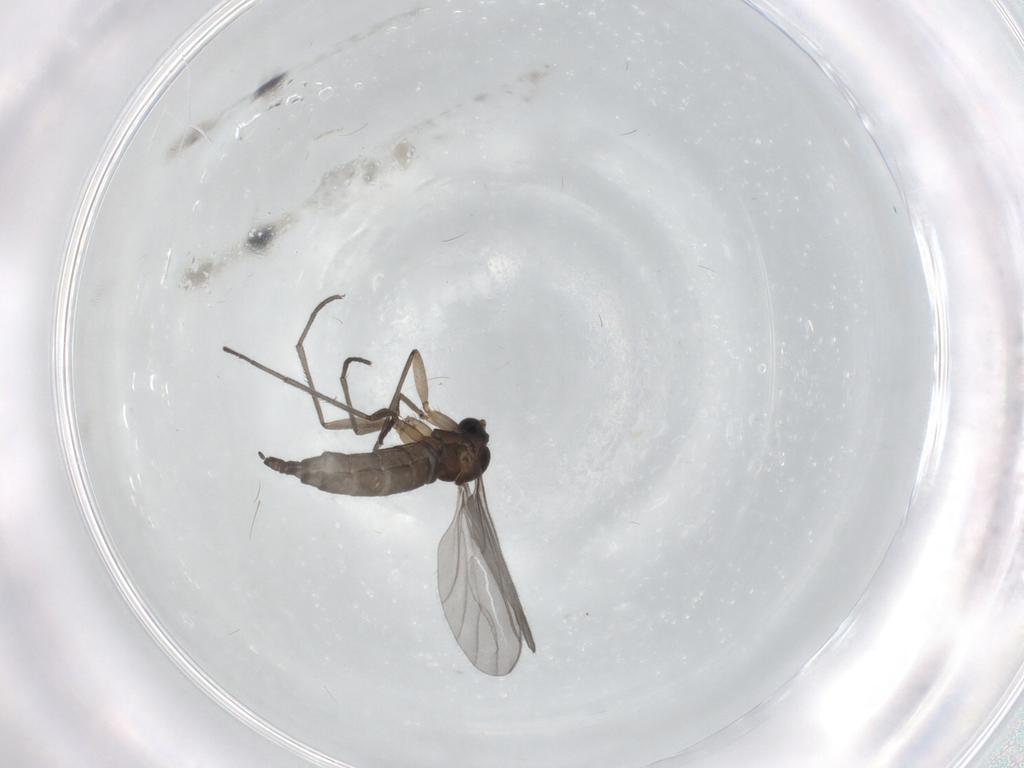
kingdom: Animalia
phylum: Arthropoda
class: Insecta
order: Diptera
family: Sciaridae
